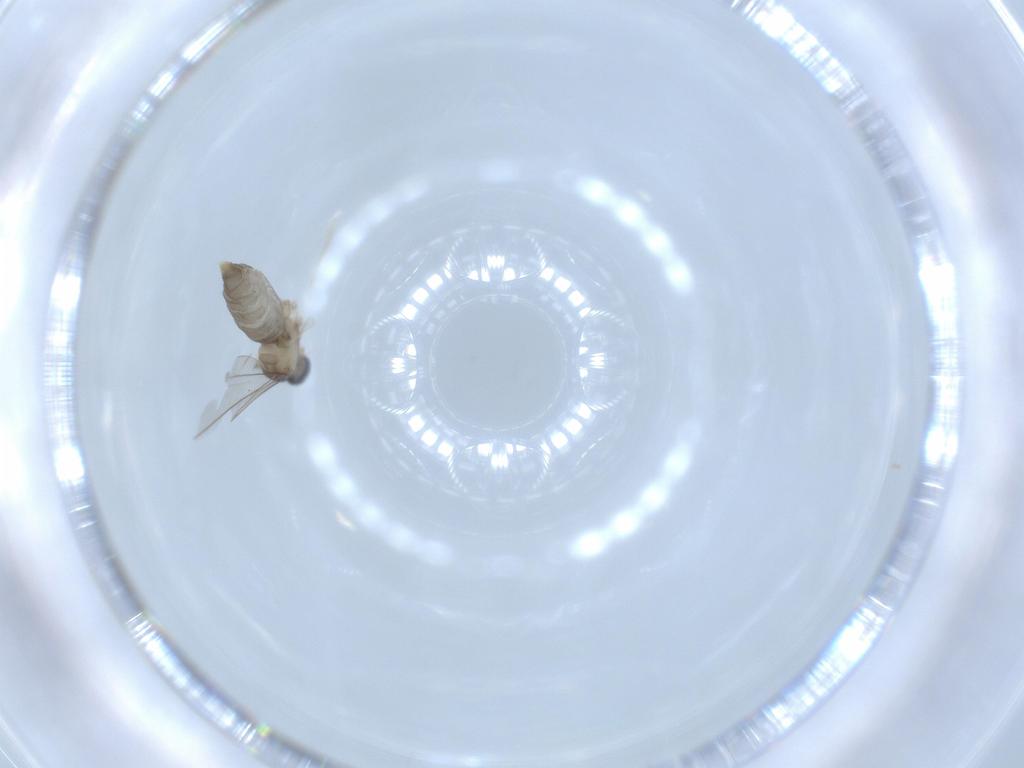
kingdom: Animalia
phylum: Arthropoda
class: Insecta
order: Diptera
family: Cecidomyiidae
